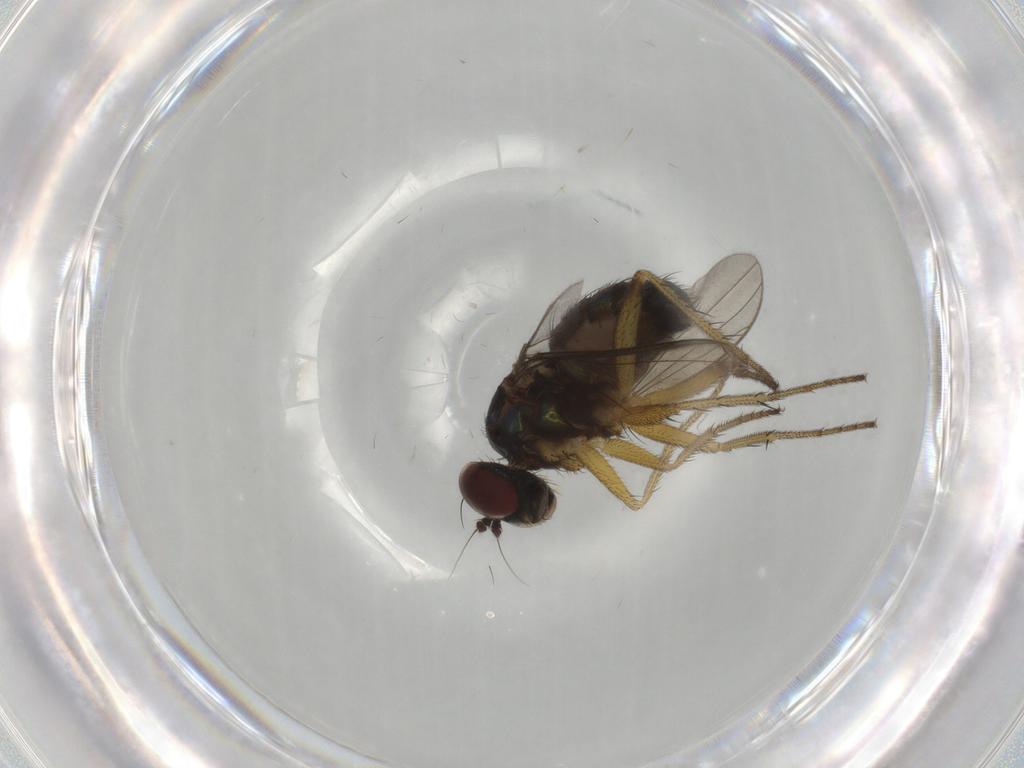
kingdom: Animalia
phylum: Arthropoda
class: Insecta
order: Diptera
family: Dolichopodidae
